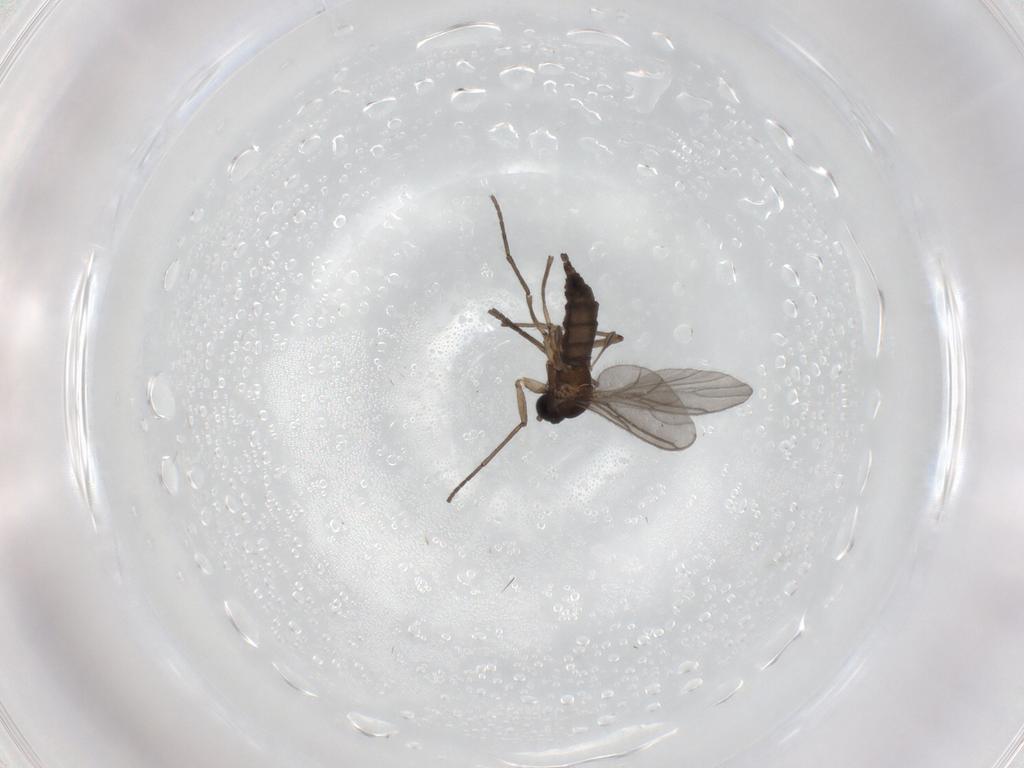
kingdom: Animalia
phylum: Arthropoda
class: Insecta
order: Diptera
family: Sciaridae
